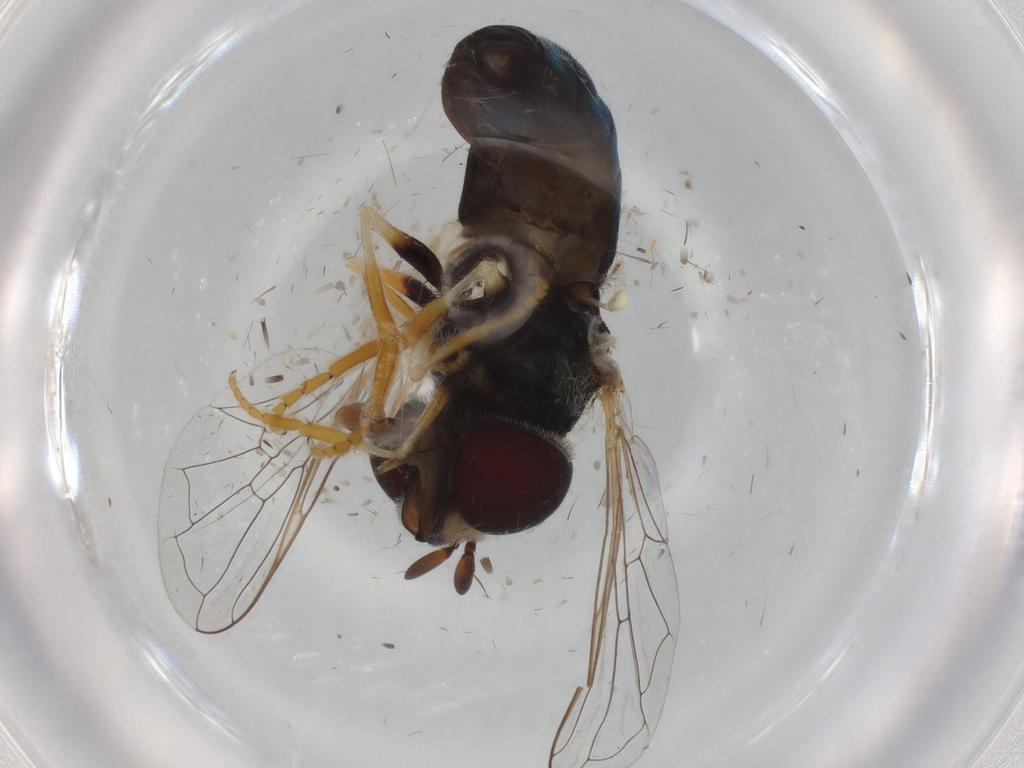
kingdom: Animalia
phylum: Arthropoda
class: Insecta
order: Diptera
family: Syrphidae
